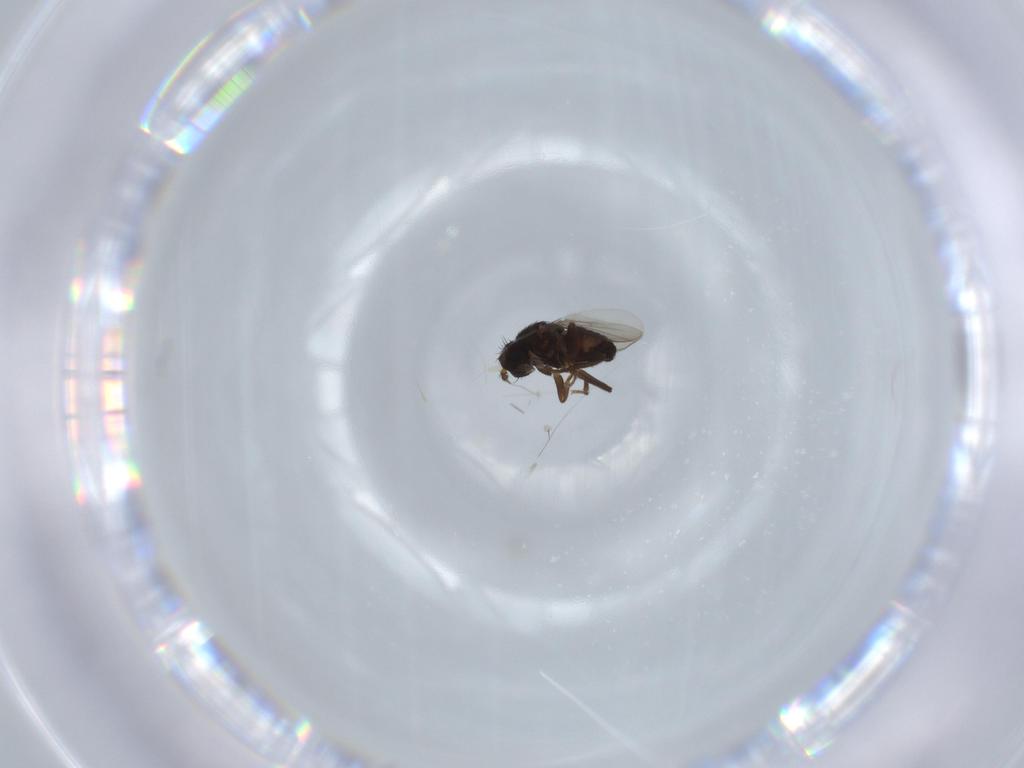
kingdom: Animalia
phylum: Arthropoda
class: Insecta
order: Diptera
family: Sphaeroceridae
